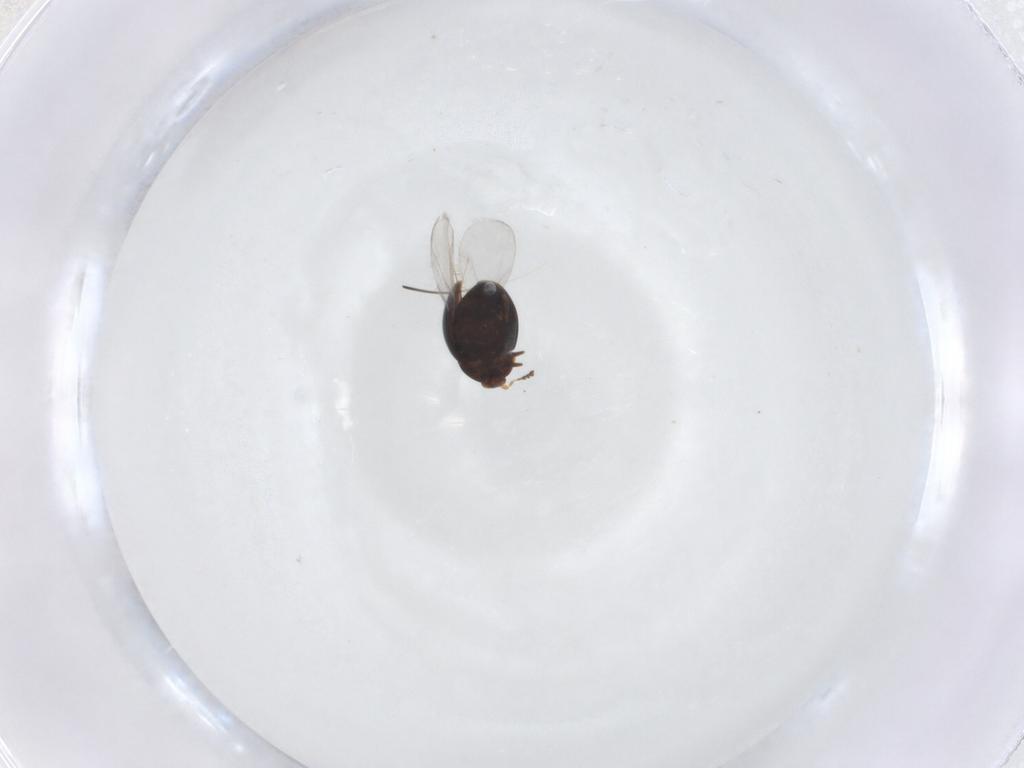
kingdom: Animalia
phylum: Arthropoda
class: Insecta
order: Coleoptera
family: Corylophidae
